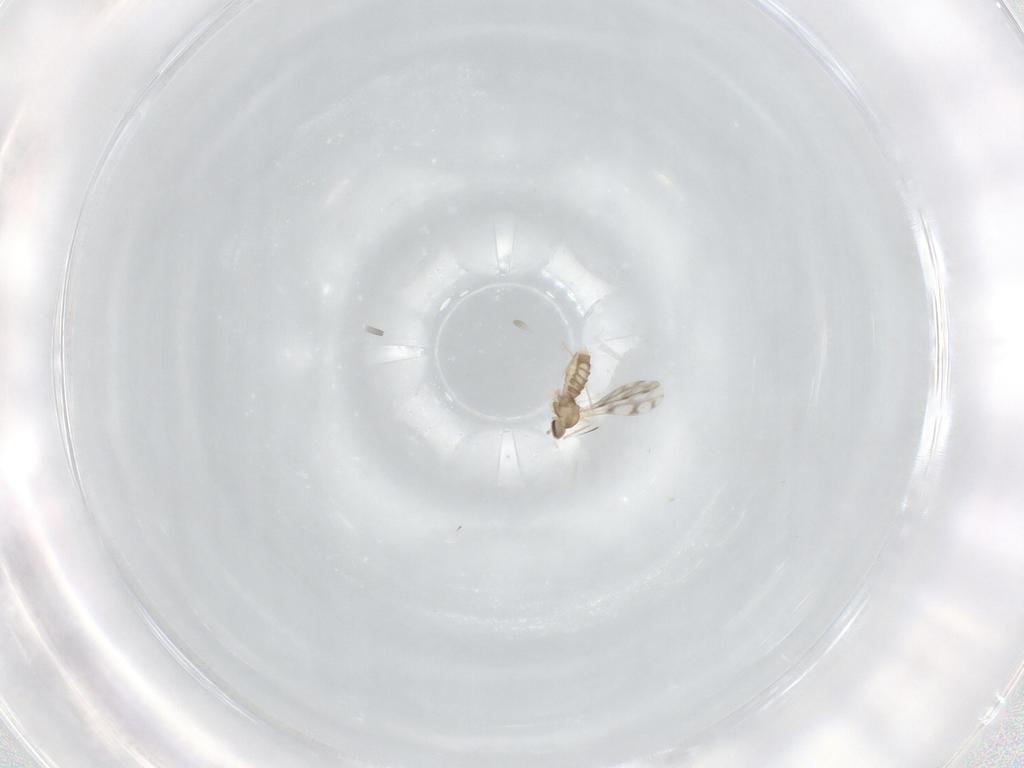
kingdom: Animalia
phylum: Arthropoda
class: Insecta
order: Diptera
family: Cecidomyiidae
